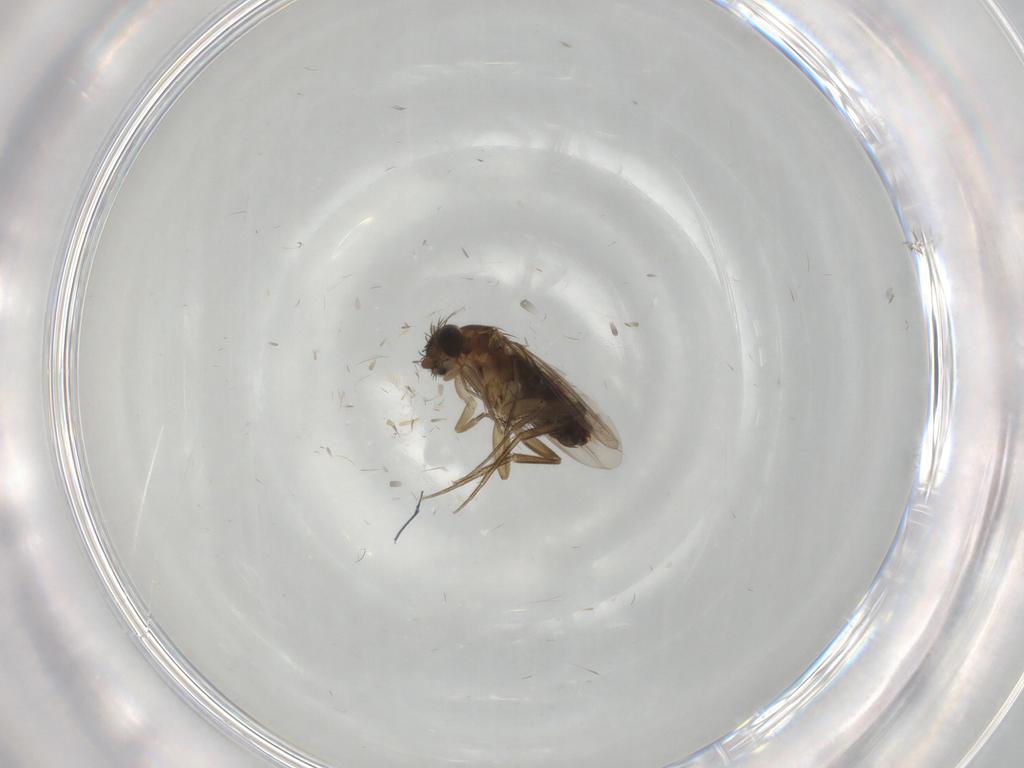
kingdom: Animalia
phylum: Arthropoda
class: Insecta
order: Diptera
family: Phoridae
